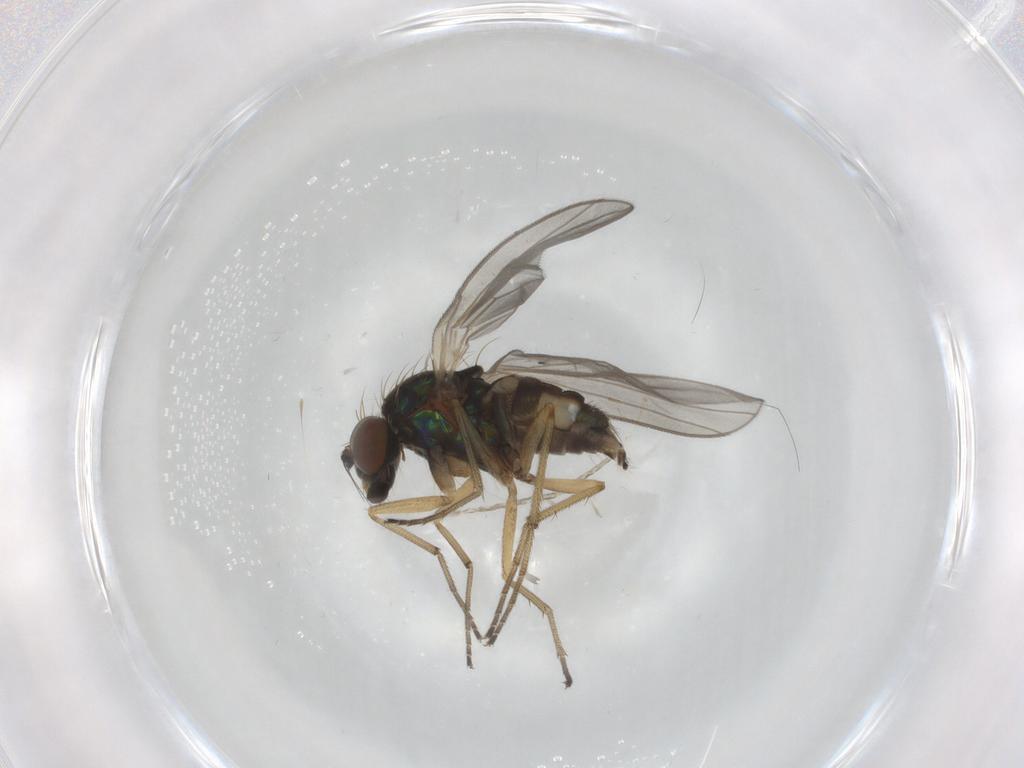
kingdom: Animalia
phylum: Arthropoda
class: Insecta
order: Diptera
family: Dolichopodidae
